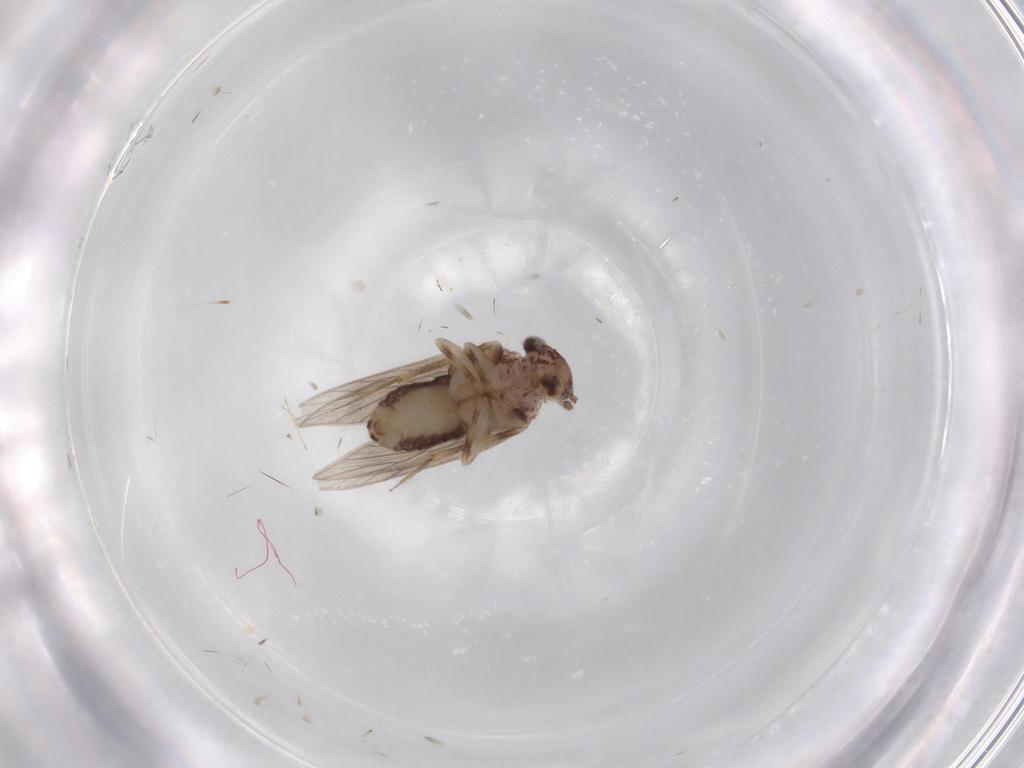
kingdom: Animalia
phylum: Arthropoda
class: Insecta
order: Psocodea
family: Lepidopsocidae
